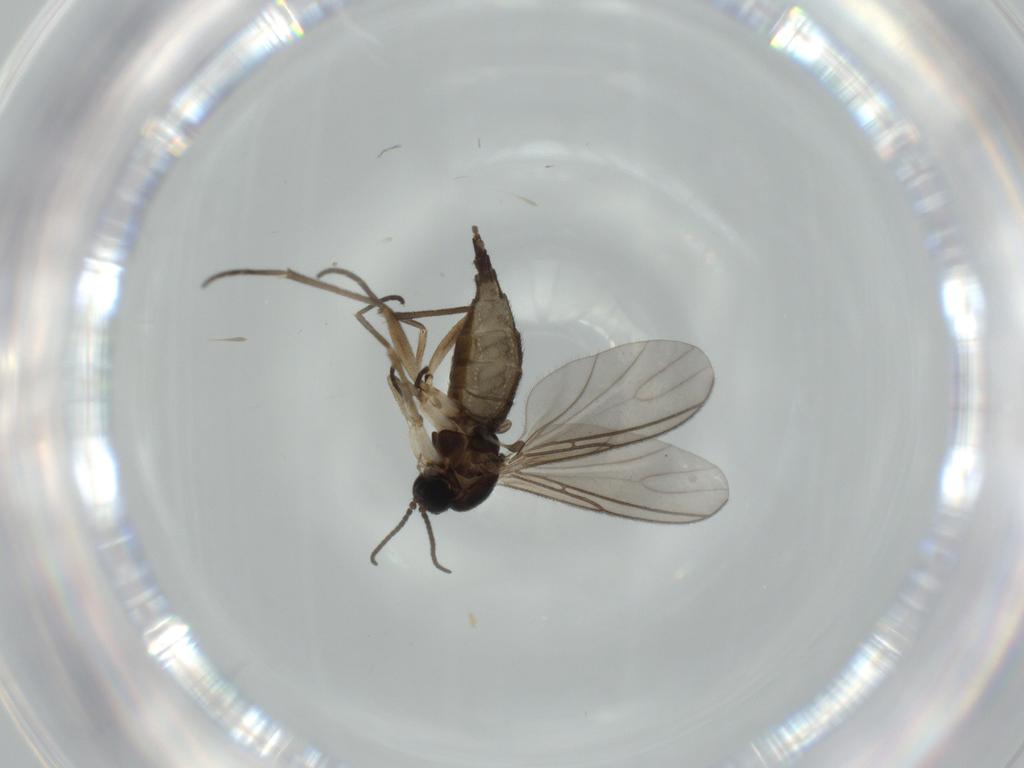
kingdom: Animalia
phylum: Arthropoda
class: Insecta
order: Diptera
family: Sciaridae
